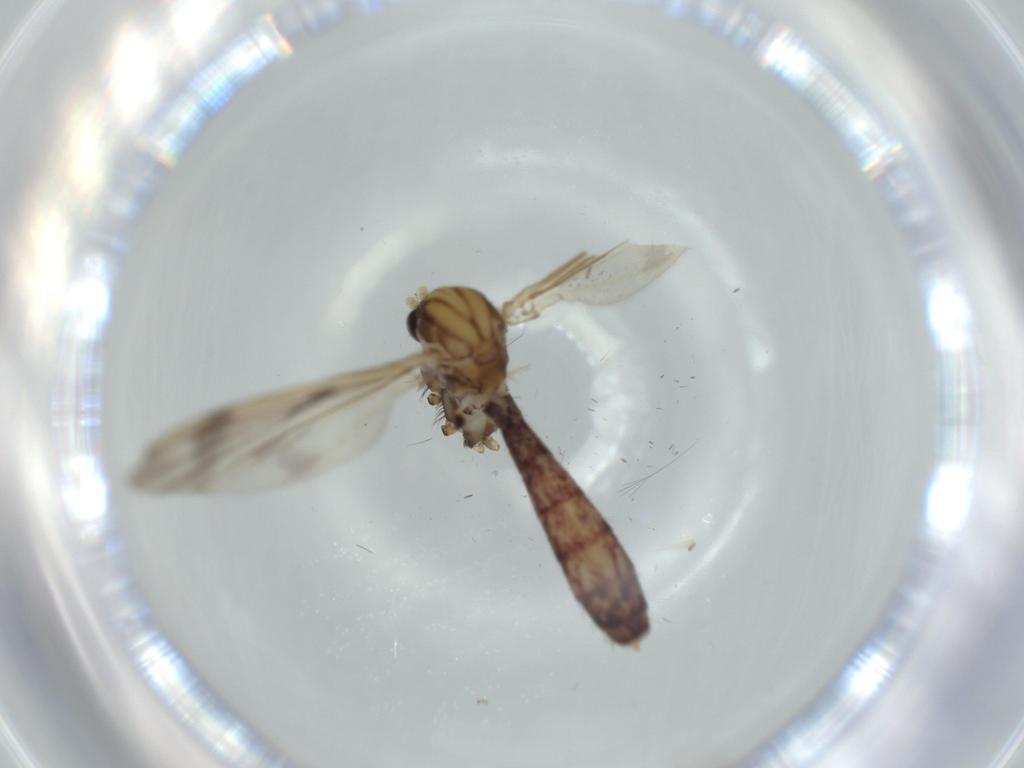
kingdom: Animalia
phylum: Arthropoda
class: Insecta
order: Diptera
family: Mycetophilidae
